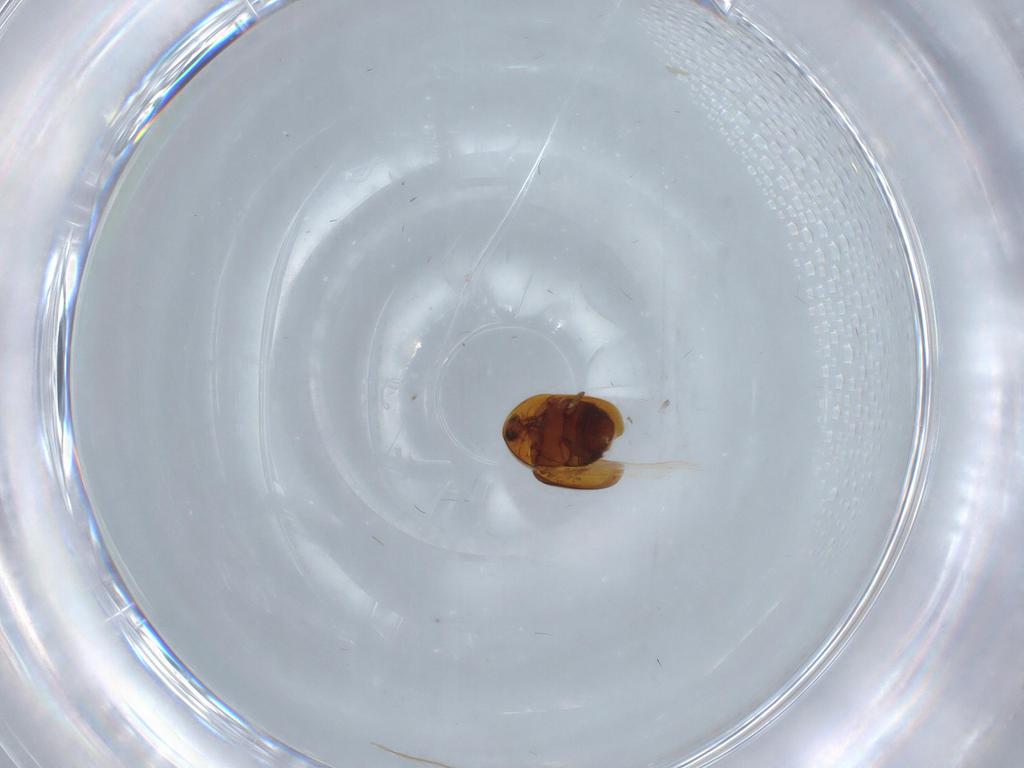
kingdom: Animalia
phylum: Arthropoda
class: Insecta
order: Coleoptera
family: Corylophidae
